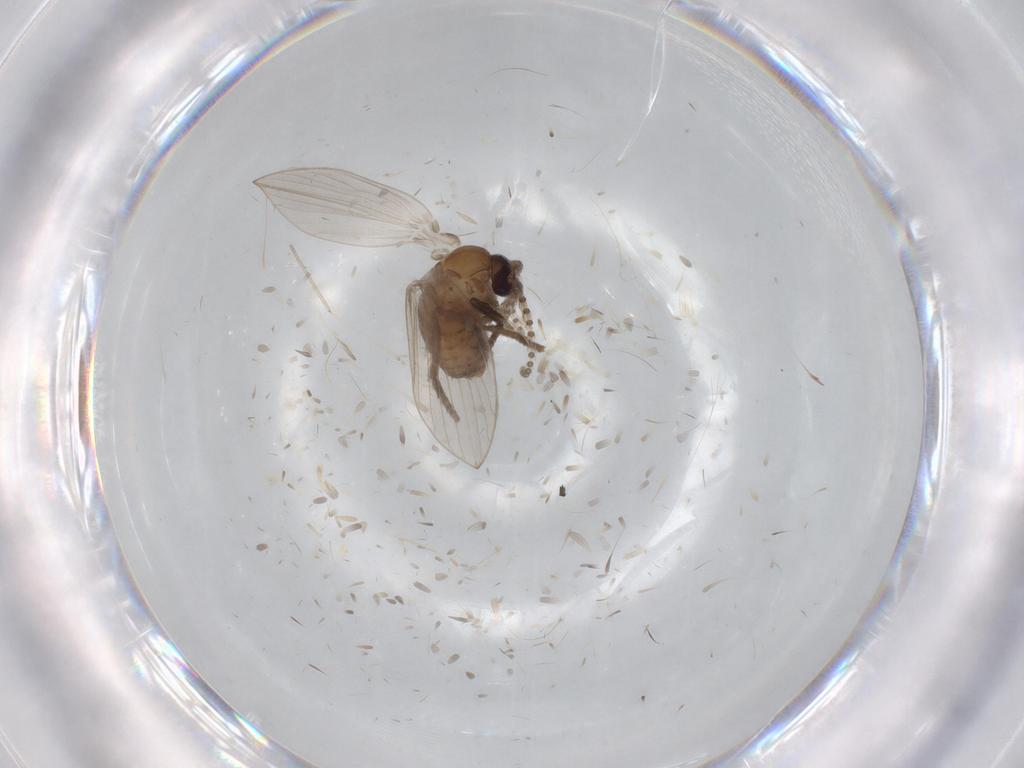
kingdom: Animalia
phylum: Arthropoda
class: Insecta
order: Diptera
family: Psychodidae
